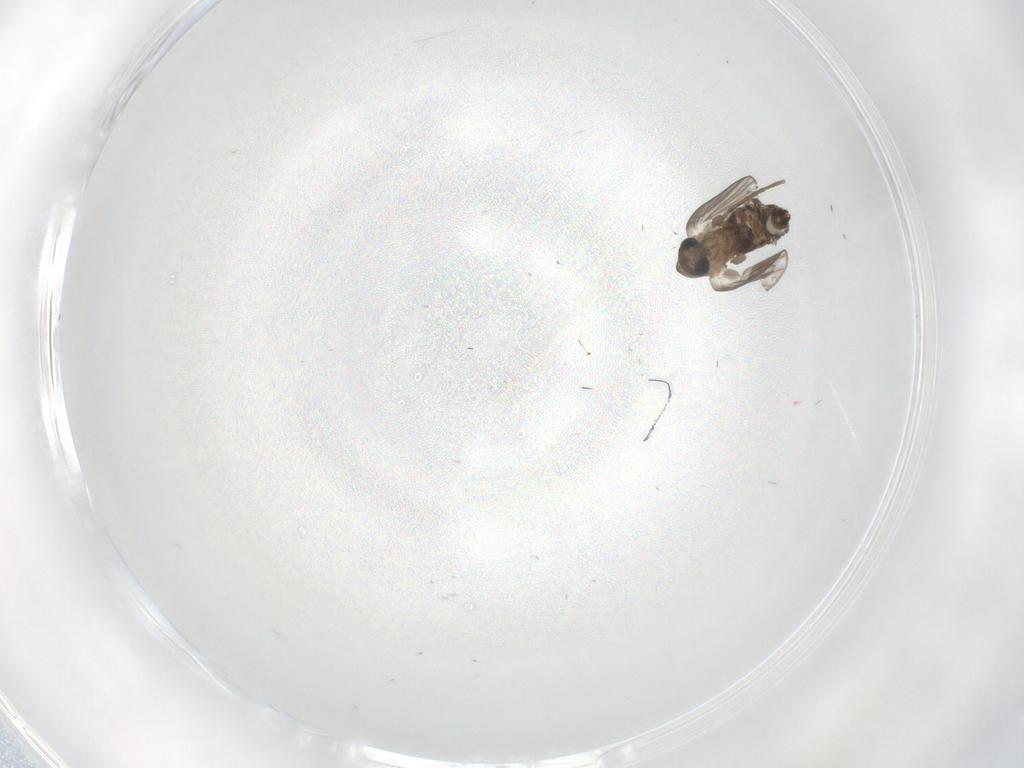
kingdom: Animalia
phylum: Arthropoda
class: Insecta
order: Diptera
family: Psychodidae
